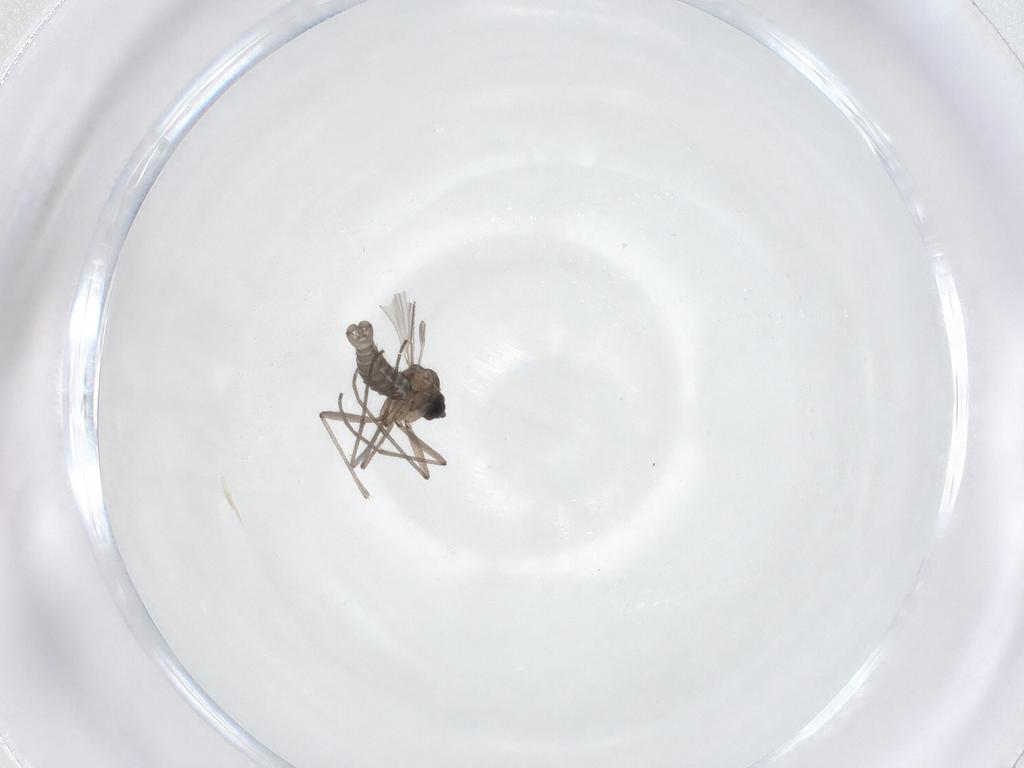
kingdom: Animalia
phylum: Arthropoda
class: Insecta
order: Diptera
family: Sciaridae
